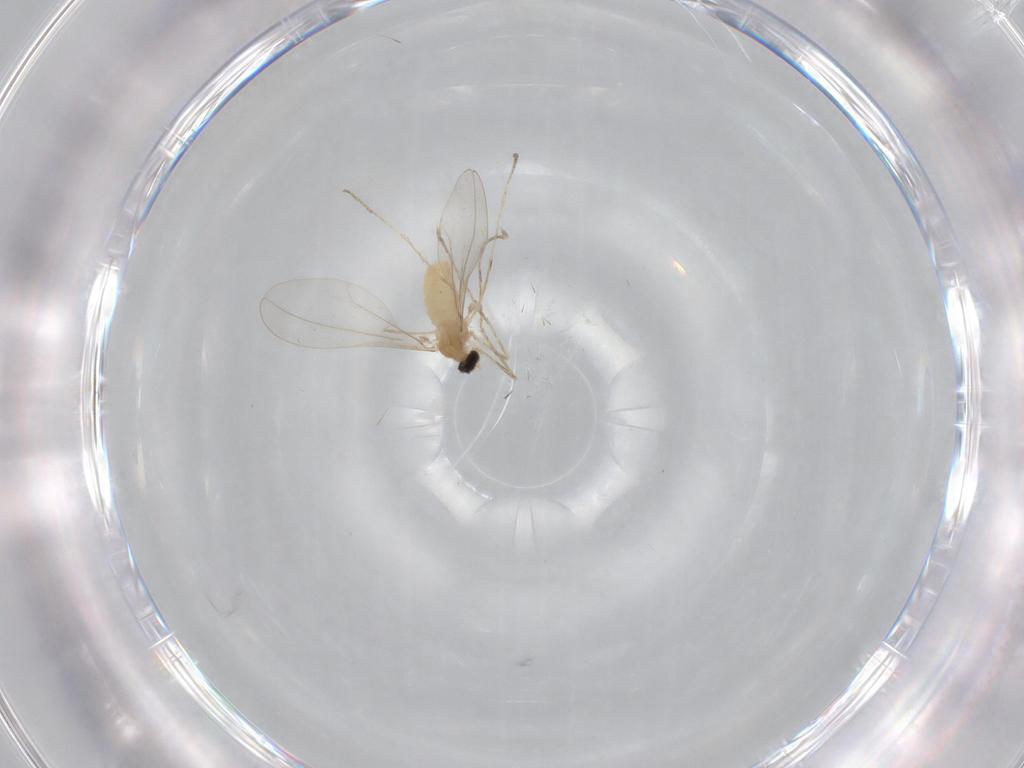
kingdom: Animalia
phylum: Arthropoda
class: Insecta
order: Diptera
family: Cecidomyiidae
